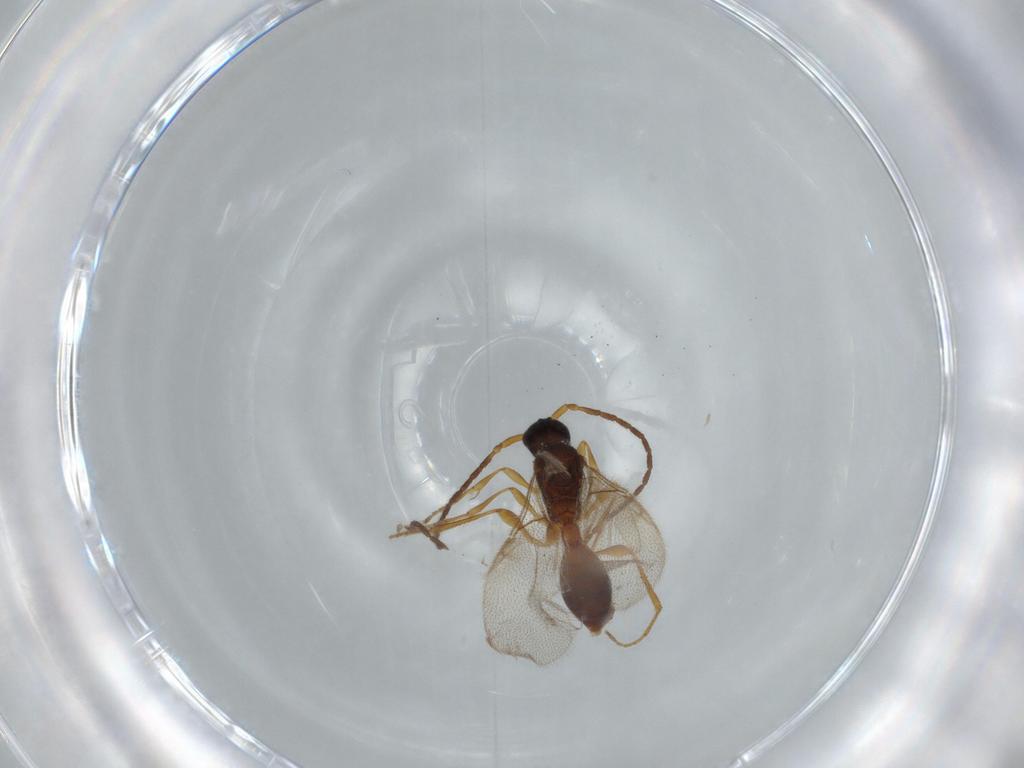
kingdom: Animalia
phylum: Arthropoda
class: Insecta
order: Hymenoptera
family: Diapriidae
